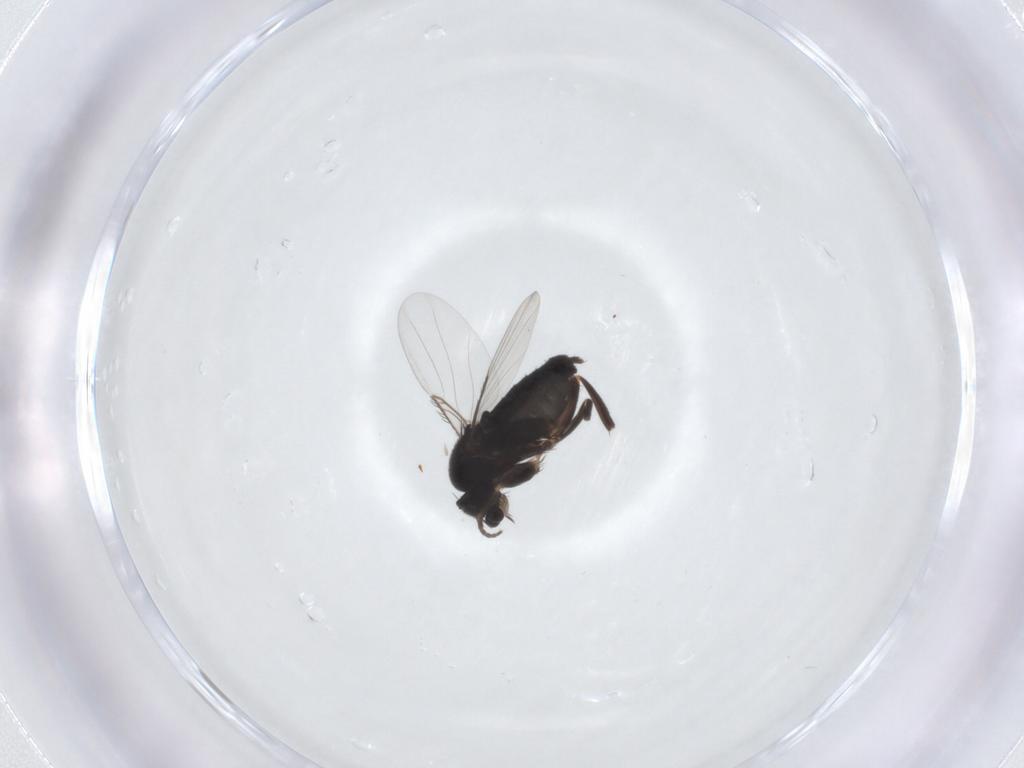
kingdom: Animalia
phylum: Arthropoda
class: Insecta
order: Diptera
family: Phoridae
